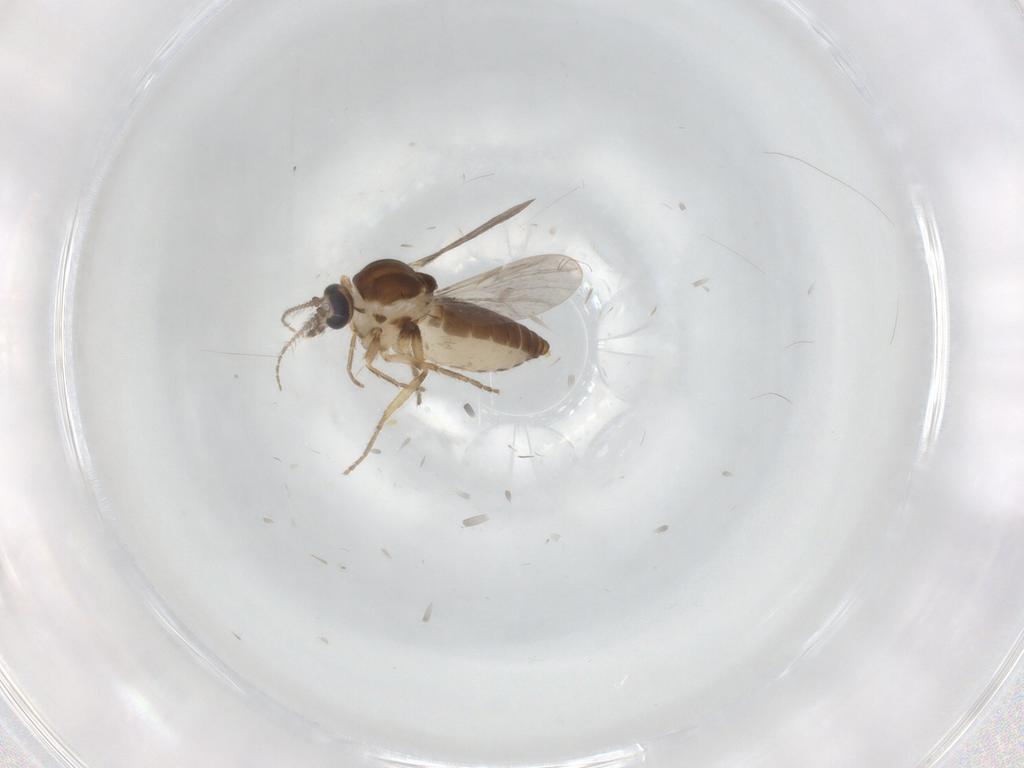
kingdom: Animalia
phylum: Arthropoda
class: Insecta
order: Diptera
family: Ceratopogonidae
